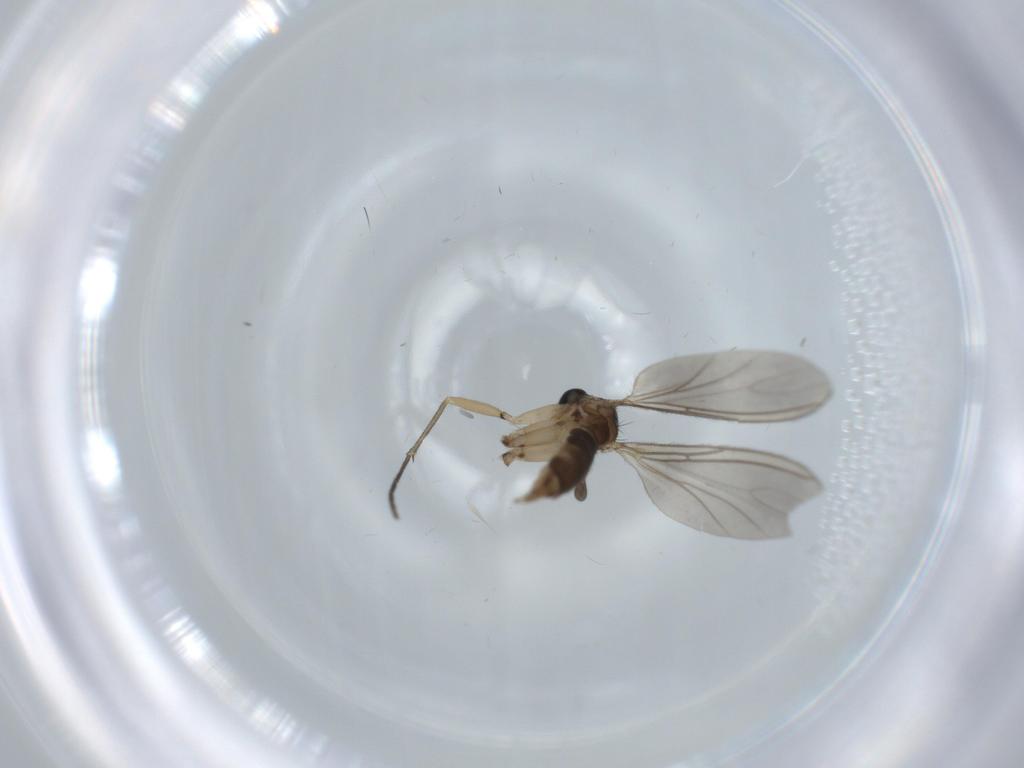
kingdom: Animalia
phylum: Arthropoda
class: Insecta
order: Diptera
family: Sciaridae
